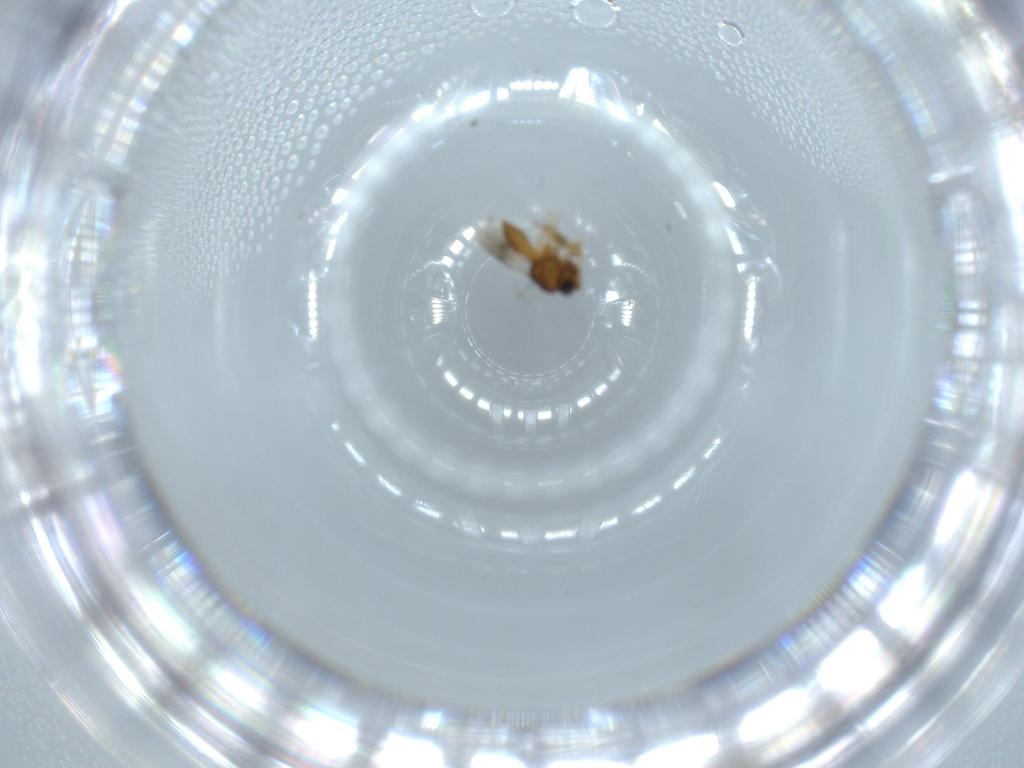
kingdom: Animalia
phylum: Arthropoda
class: Insecta
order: Hymenoptera
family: Scelionidae
